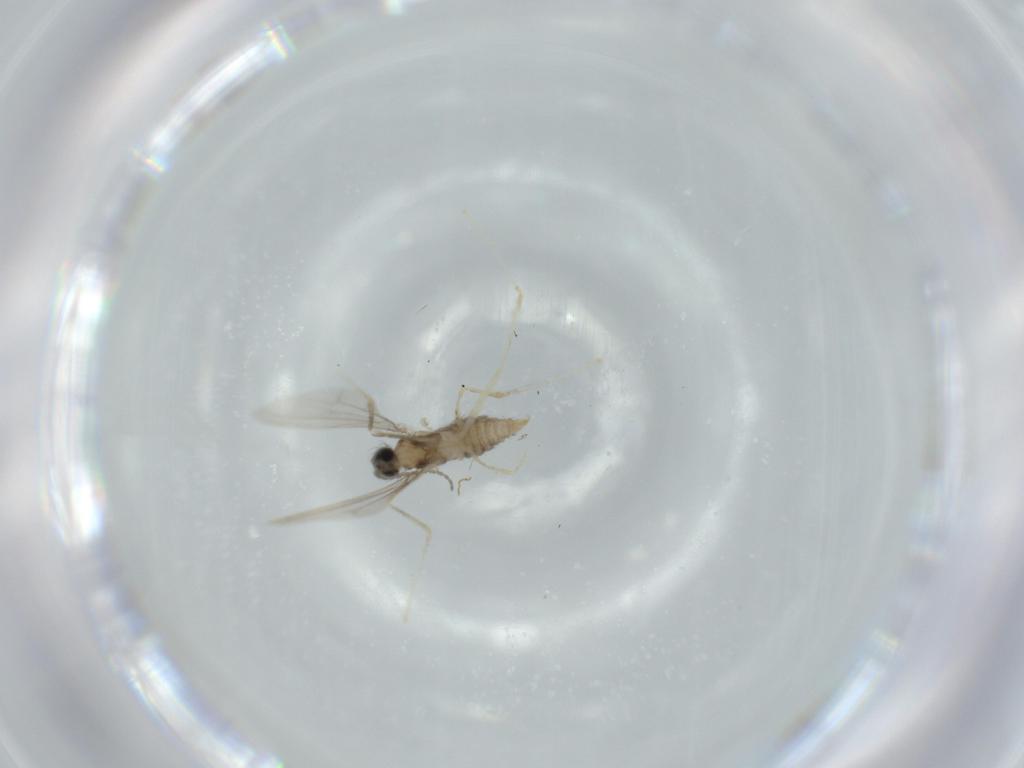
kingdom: Animalia
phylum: Arthropoda
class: Insecta
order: Diptera
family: Cecidomyiidae
